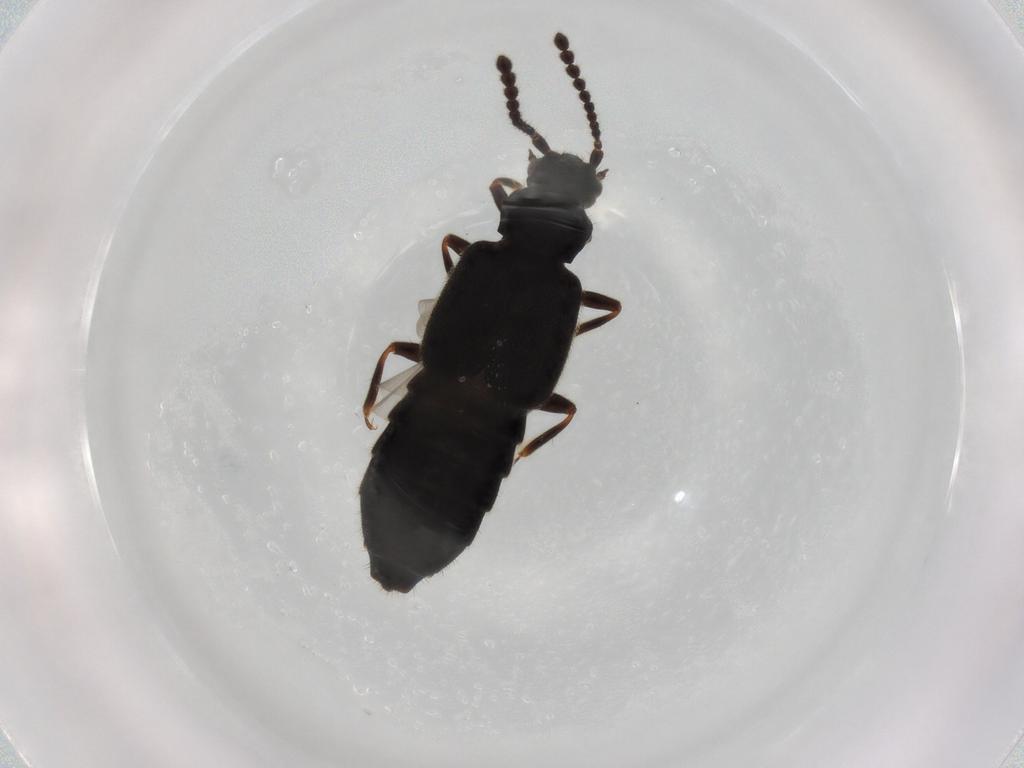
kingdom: Animalia
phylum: Arthropoda
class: Insecta
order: Coleoptera
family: Staphylinidae
